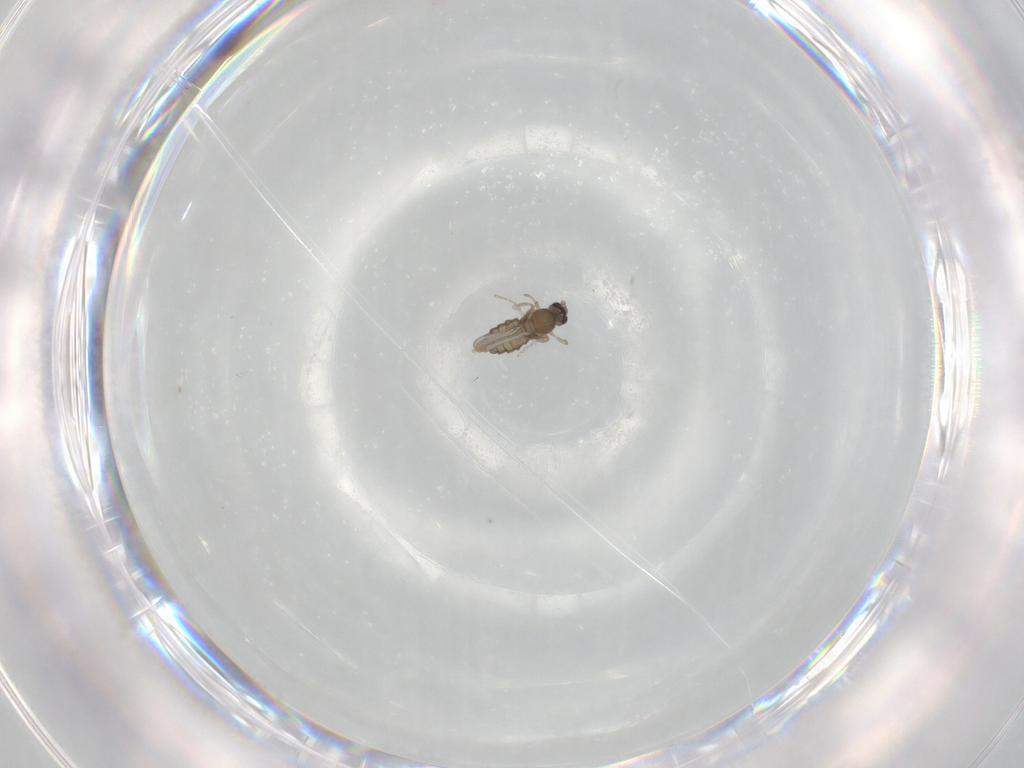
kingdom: Animalia
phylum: Arthropoda
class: Insecta
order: Diptera
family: Cecidomyiidae
